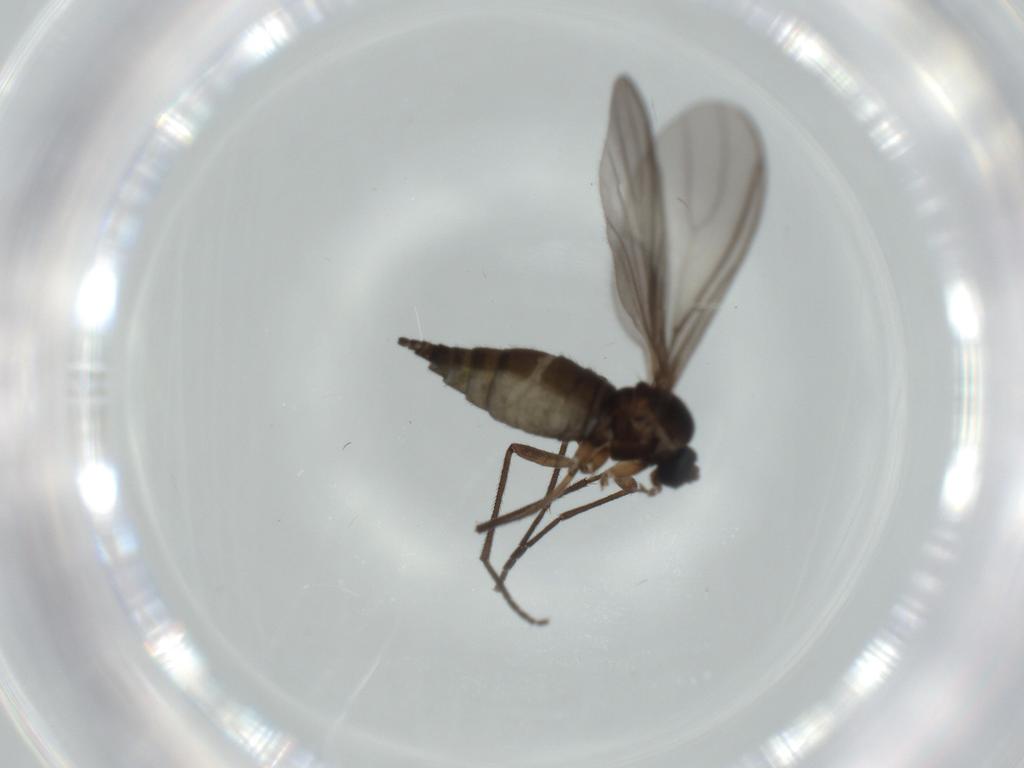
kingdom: Animalia
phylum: Arthropoda
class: Insecta
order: Diptera
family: Sciaridae
